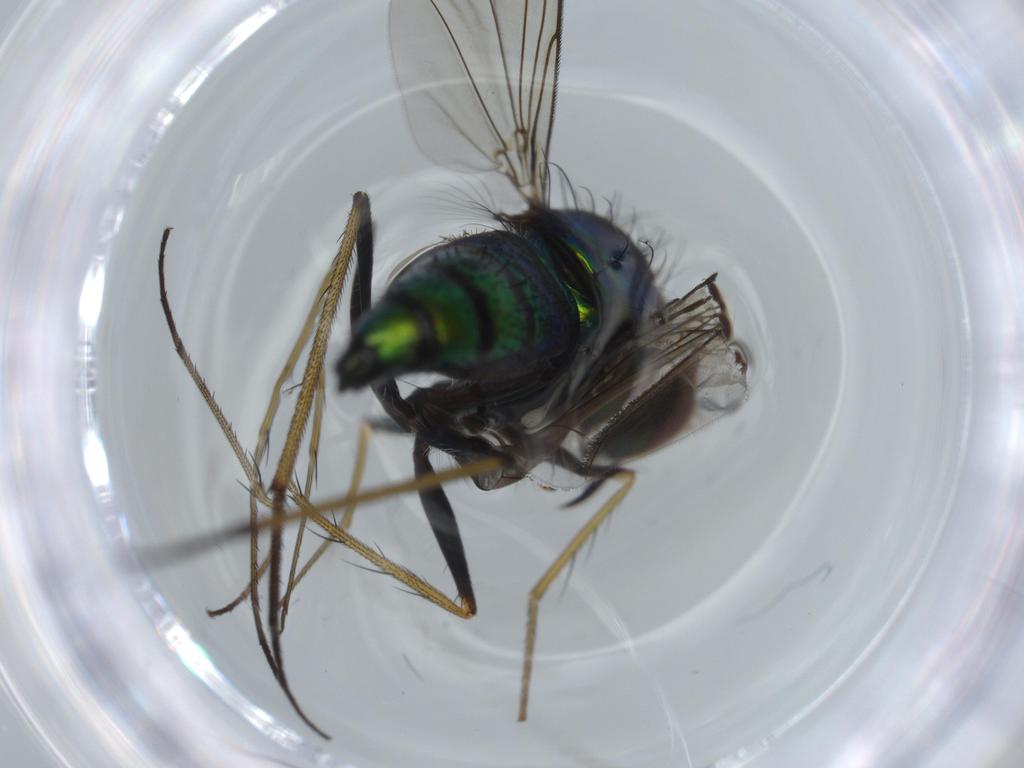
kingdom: Animalia
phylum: Arthropoda
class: Insecta
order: Diptera
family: Dolichopodidae
